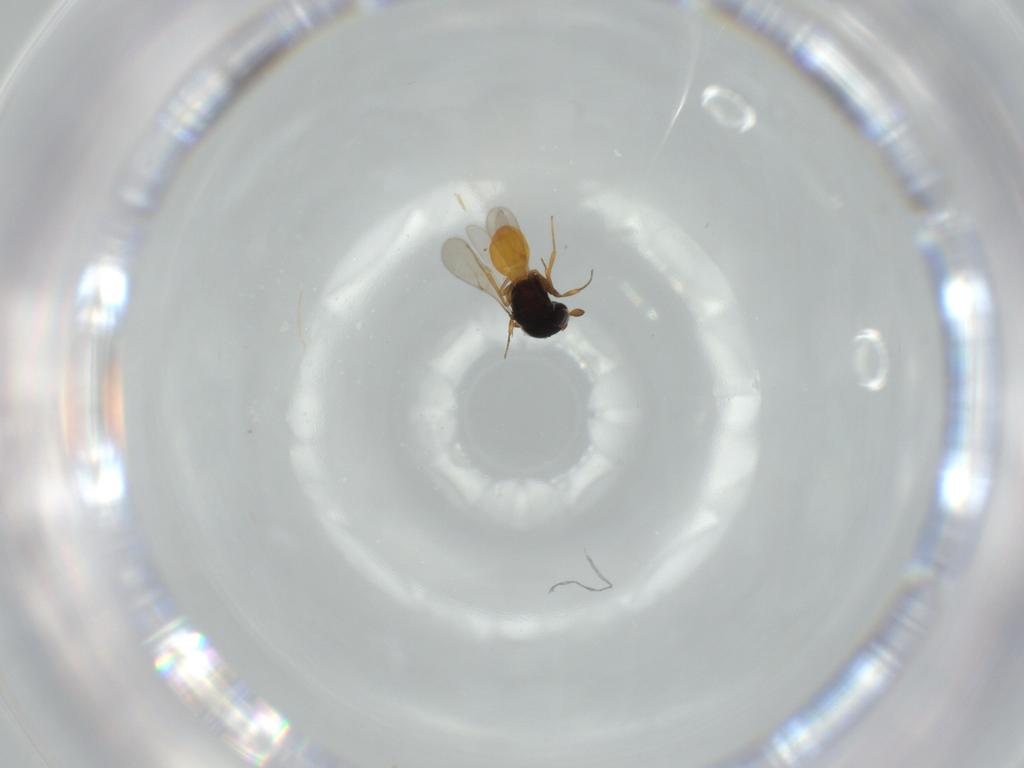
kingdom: Animalia
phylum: Arthropoda
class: Insecta
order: Hymenoptera
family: Scelionidae
